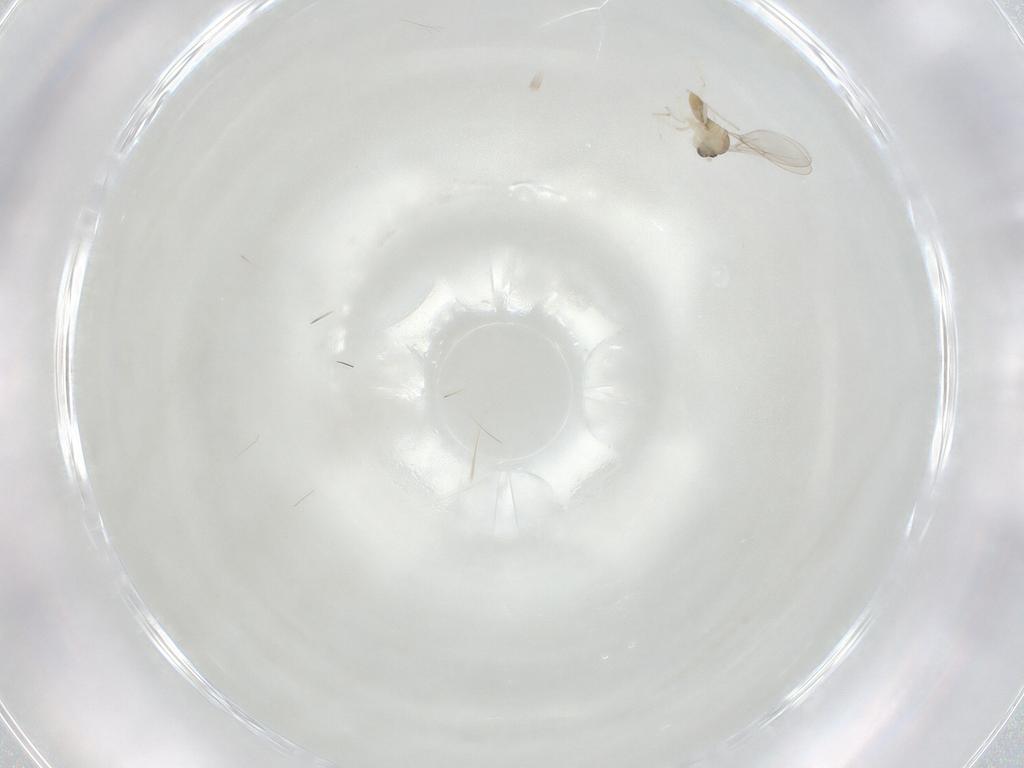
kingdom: Animalia
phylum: Arthropoda
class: Insecta
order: Diptera
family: Cecidomyiidae
